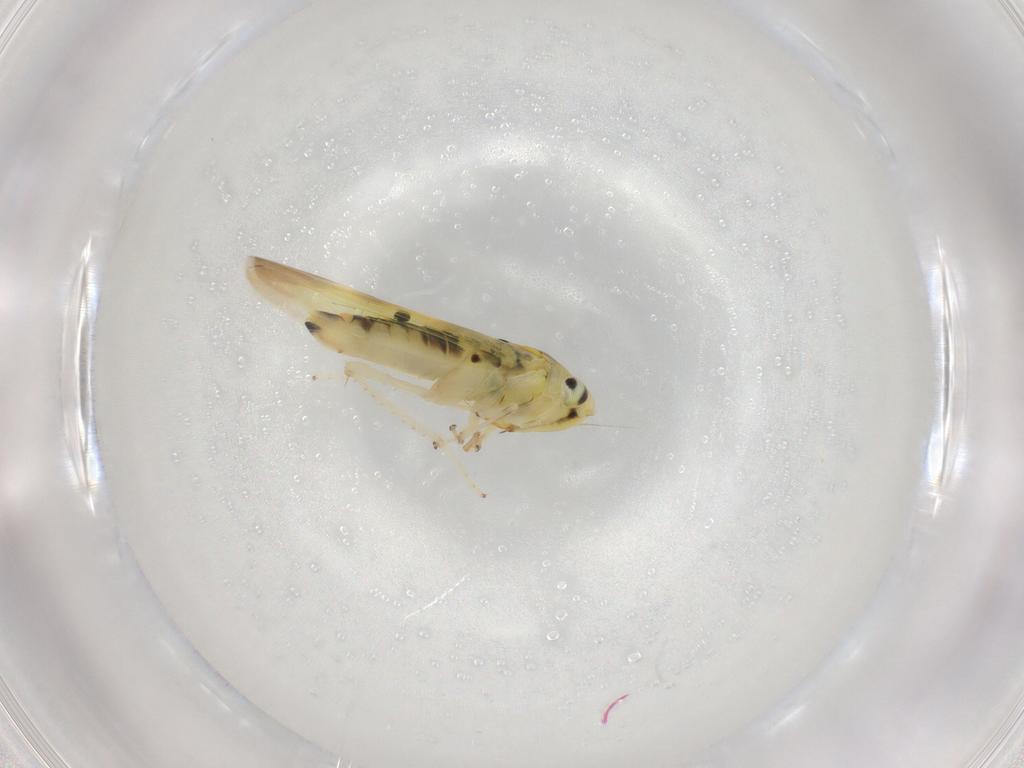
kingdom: Animalia
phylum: Arthropoda
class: Insecta
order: Hemiptera
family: Cicadellidae
